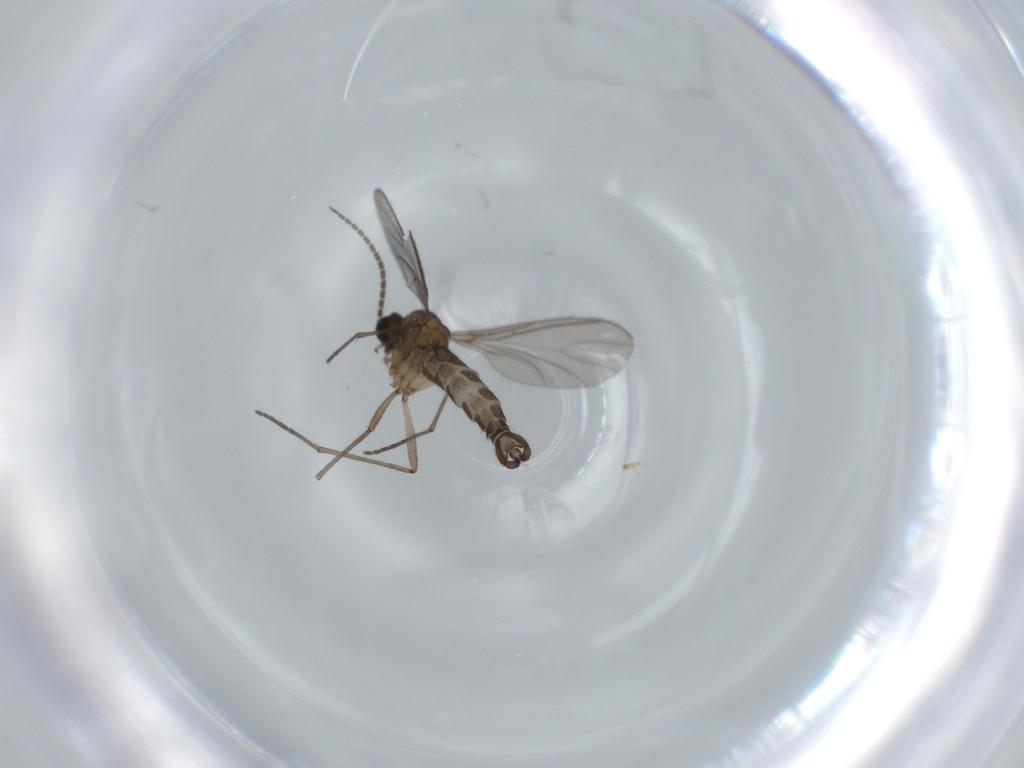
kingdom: Animalia
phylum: Arthropoda
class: Insecta
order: Diptera
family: Sciaridae
